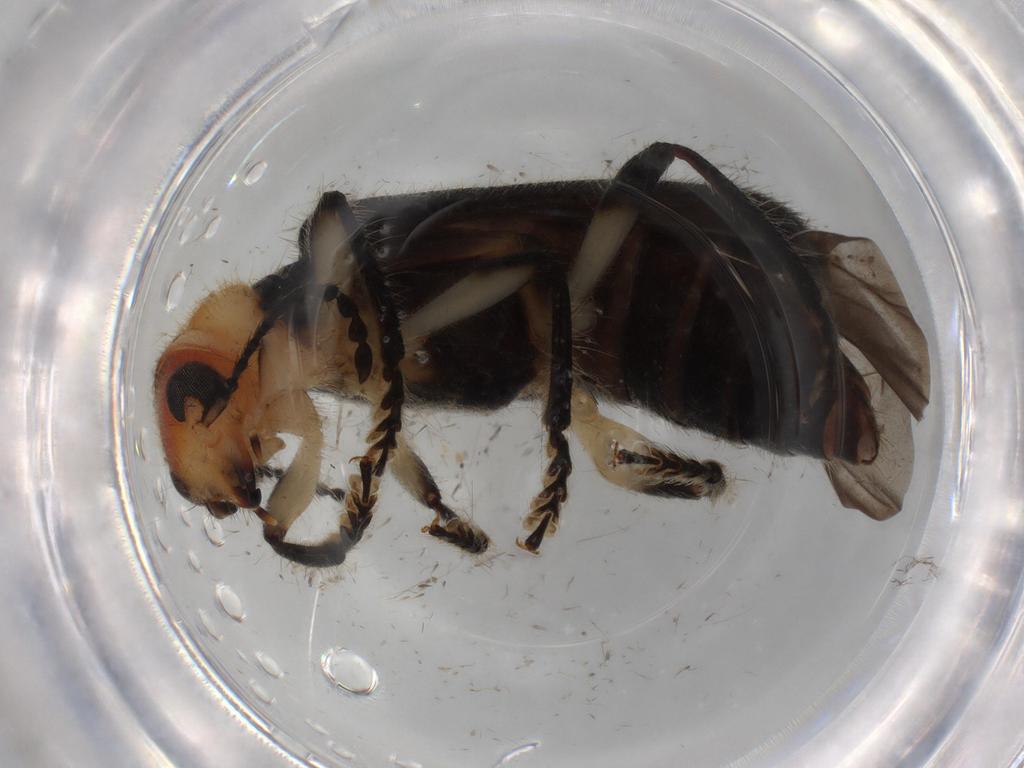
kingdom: Animalia
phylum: Arthropoda
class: Insecta
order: Coleoptera
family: Cleridae
